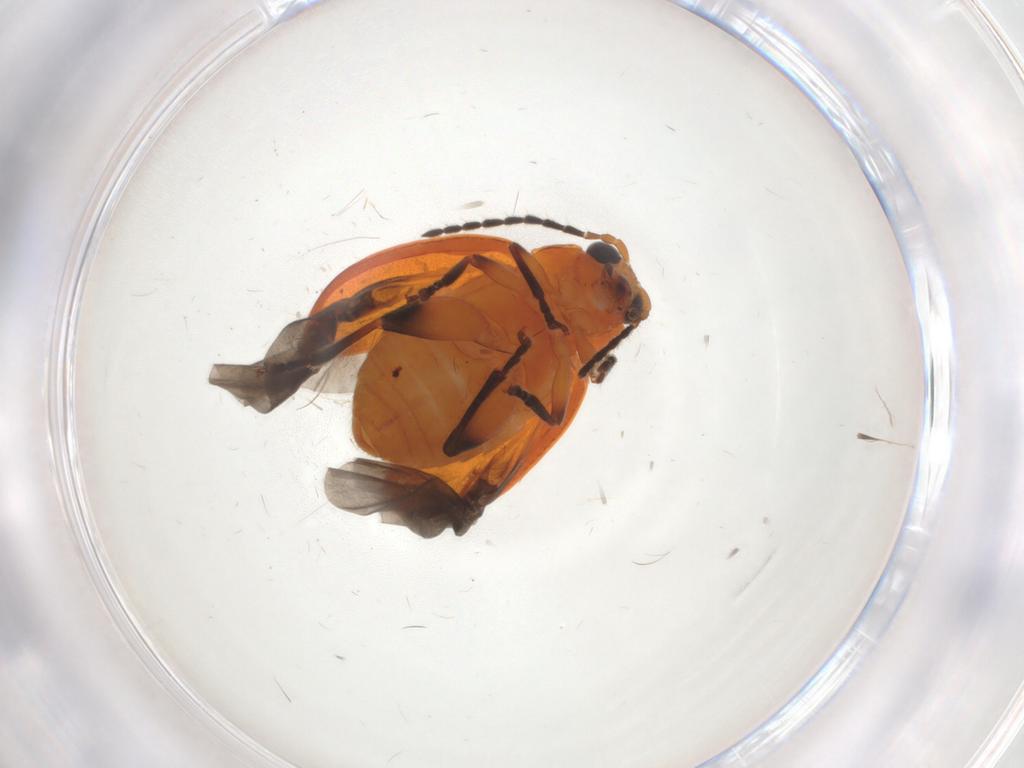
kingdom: Animalia
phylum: Arthropoda
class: Insecta
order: Coleoptera
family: Chrysomelidae
